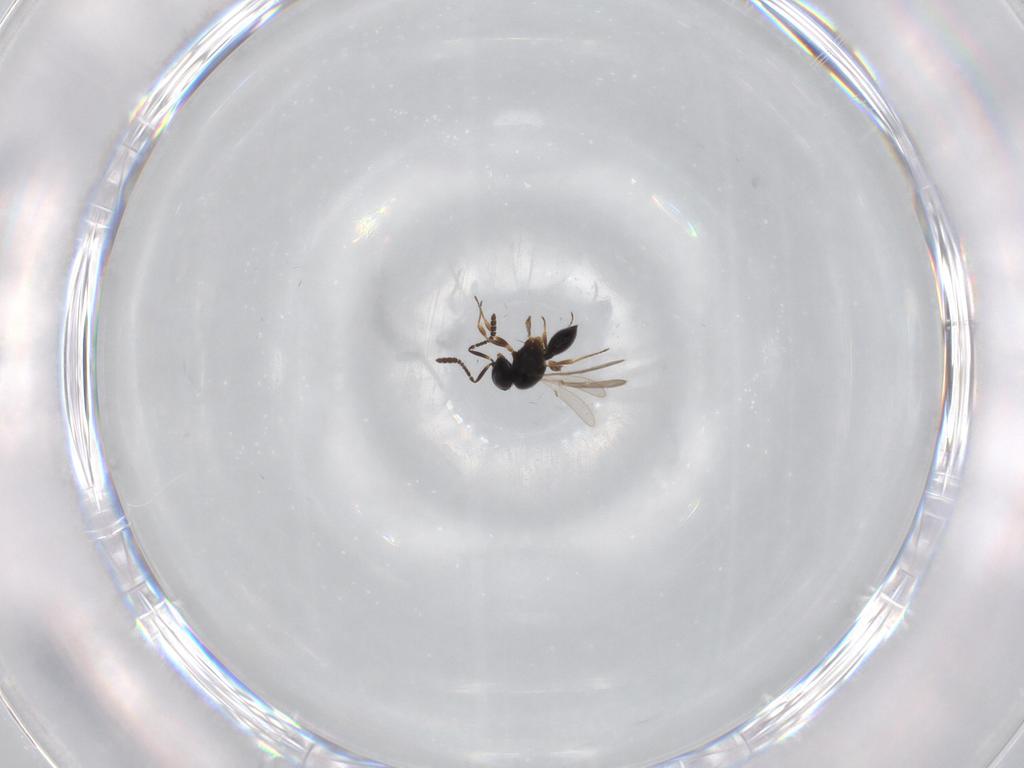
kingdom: Animalia
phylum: Arthropoda
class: Insecta
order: Hymenoptera
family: Scelionidae
